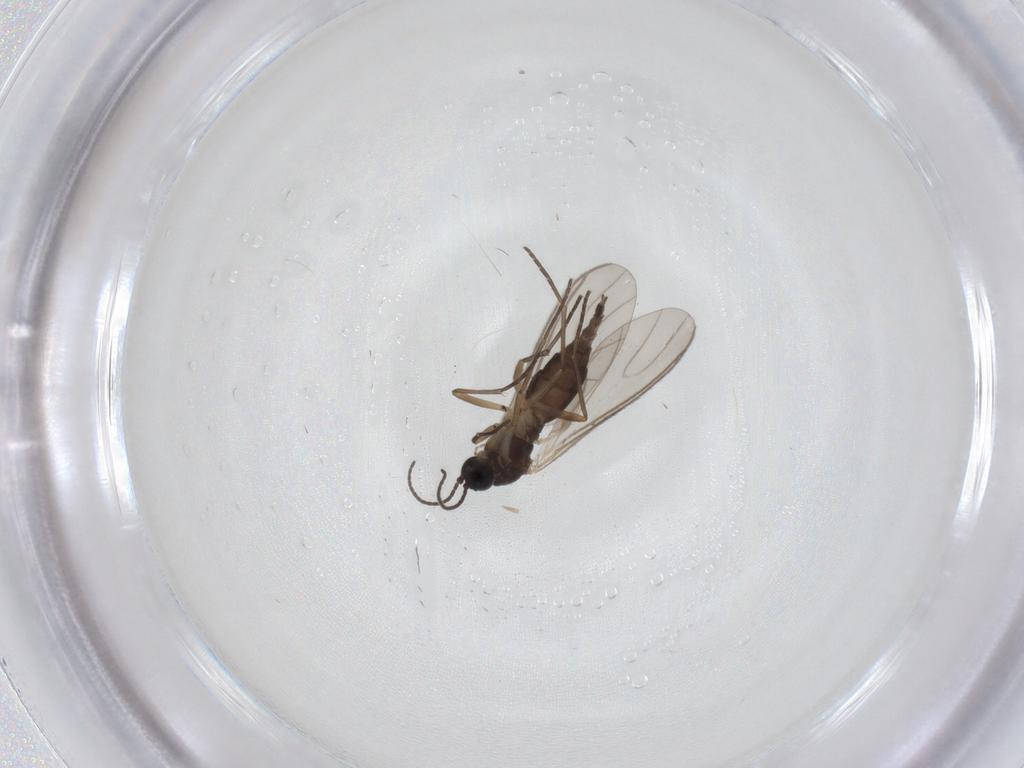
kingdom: Animalia
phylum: Arthropoda
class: Insecta
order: Diptera
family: Sciaridae
